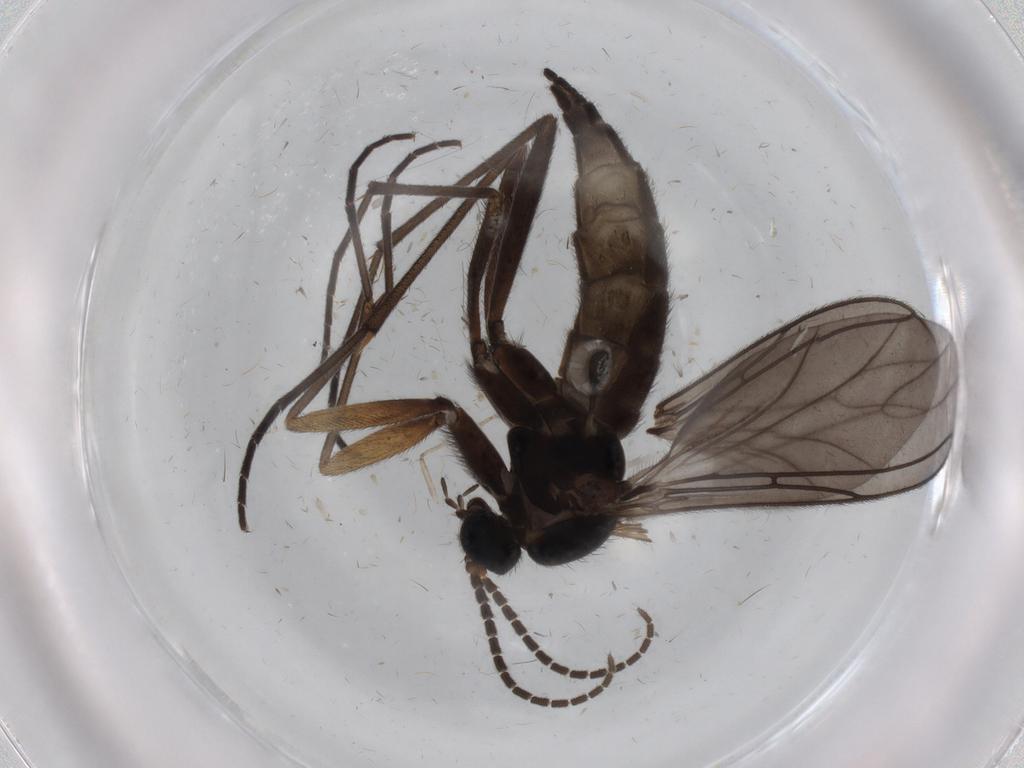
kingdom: Animalia
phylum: Arthropoda
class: Insecta
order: Diptera
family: Sciaridae
